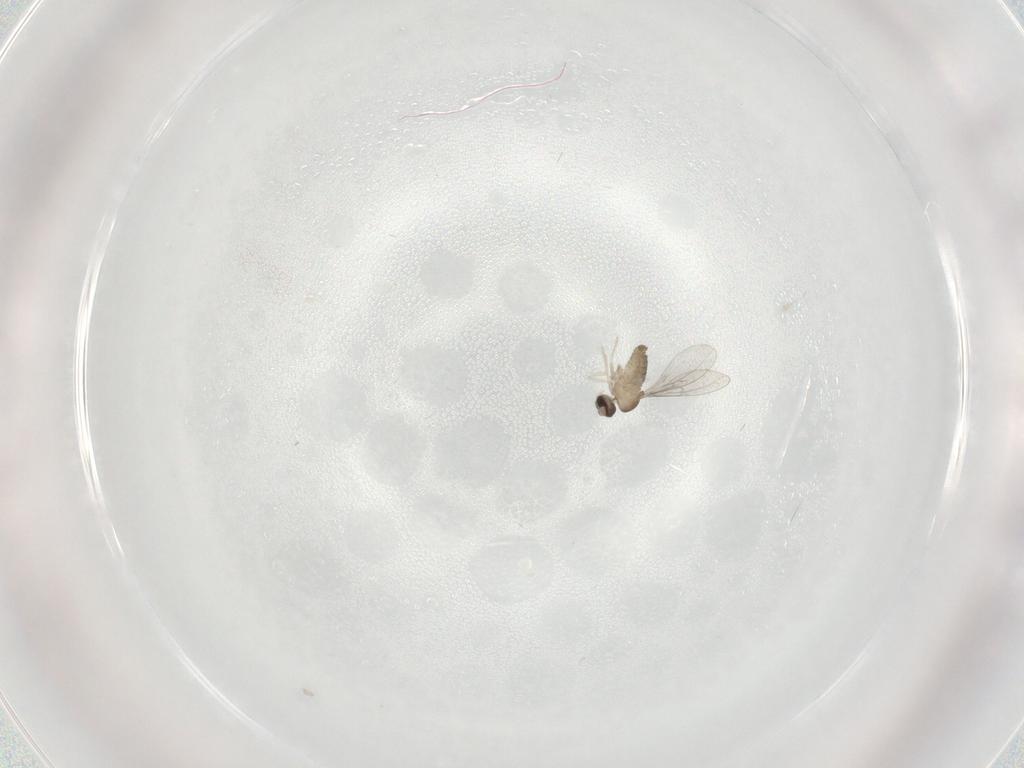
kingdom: Animalia
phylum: Arthropoda
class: Insecta
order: Diptera
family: Cecidomyiidae
